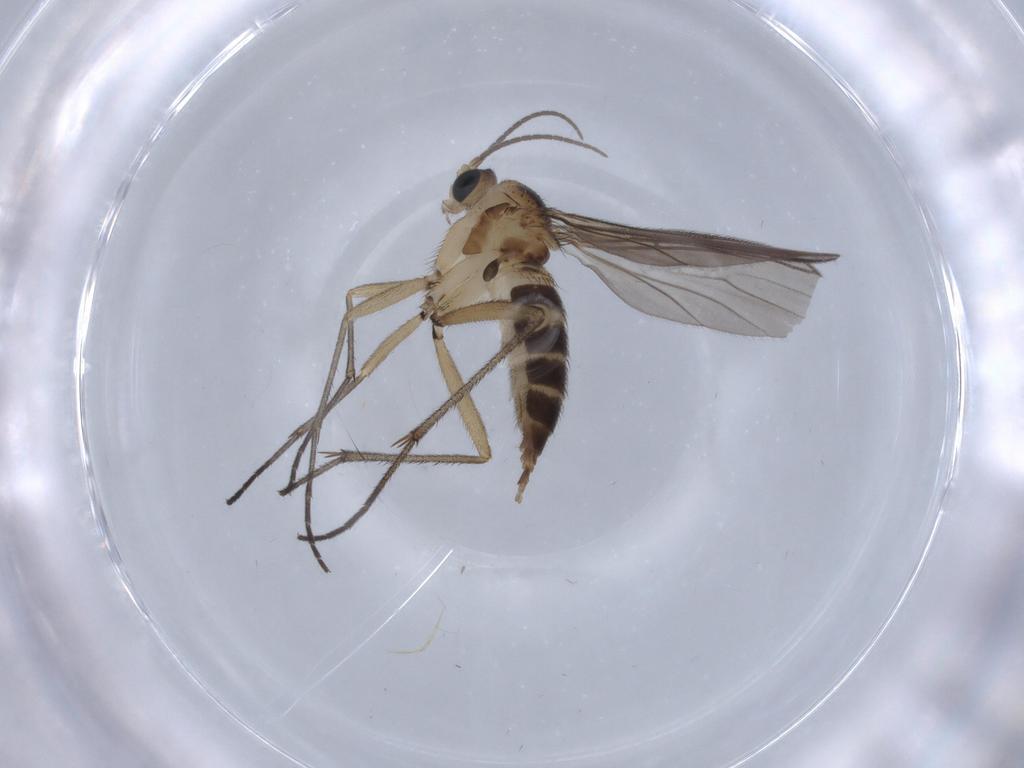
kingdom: Animalia
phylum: Arthropoda
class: Insecta
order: Diptera
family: Sciaridae
